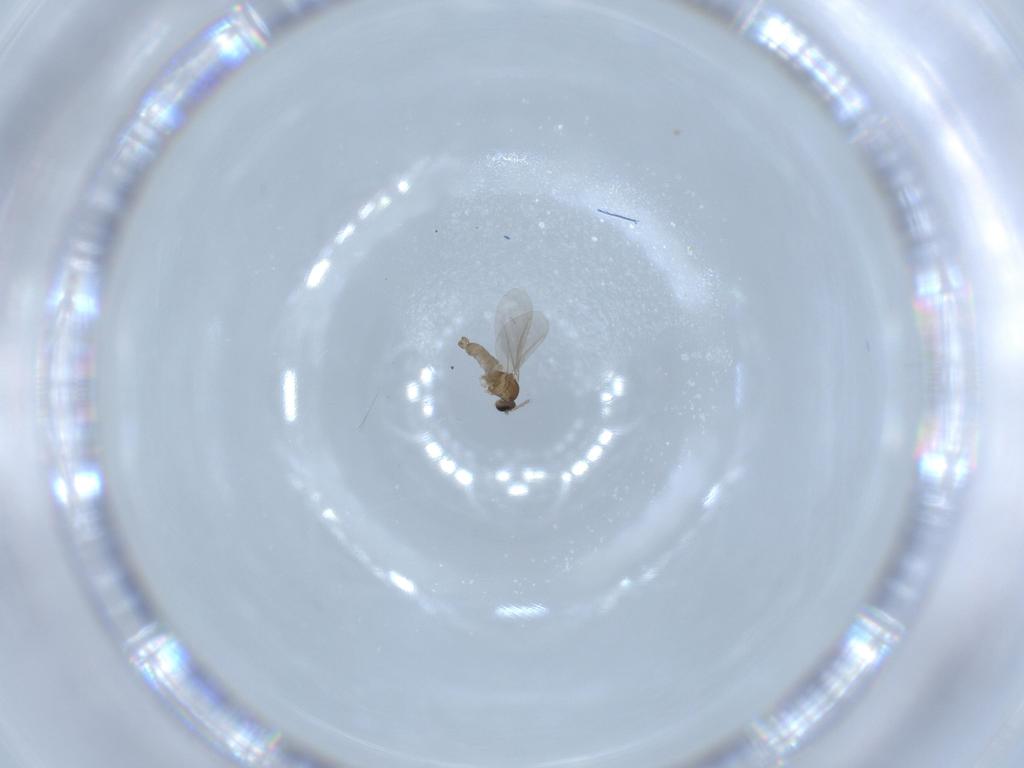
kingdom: Animalia
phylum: Arthropoda
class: Insecta
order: Diptera
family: Cecidomyiidae
